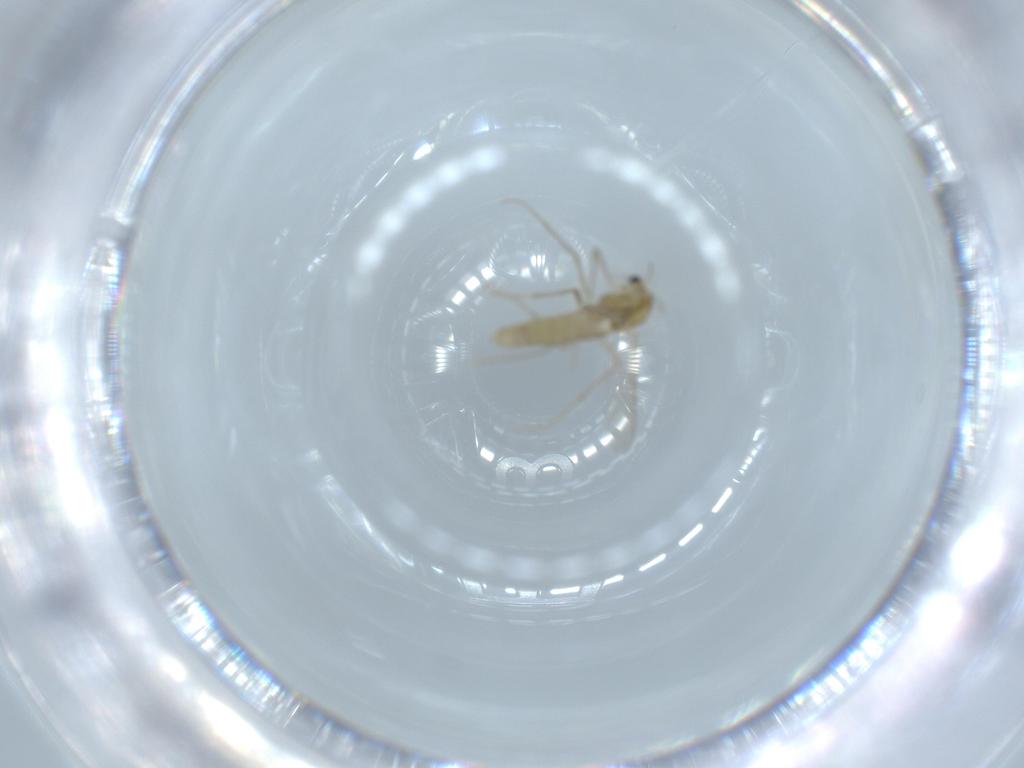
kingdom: Animalia
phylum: Arthropoda
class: Insecta
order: Diptera
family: Chironomidae
